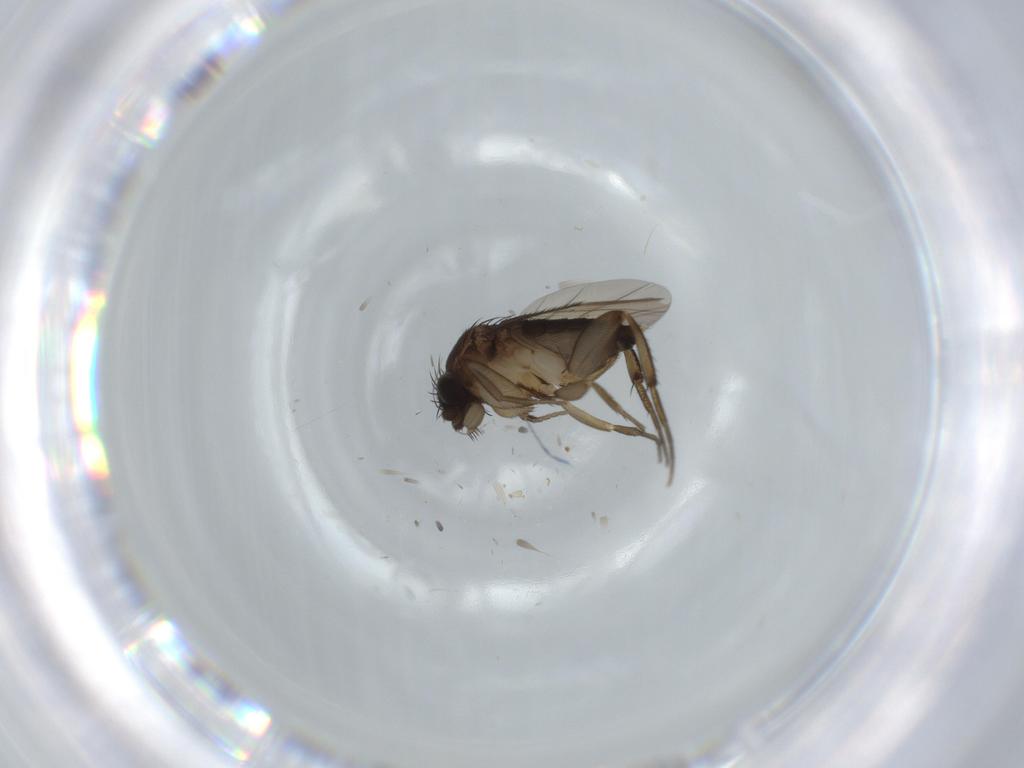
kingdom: Animalia
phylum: Arthropoda
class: Insecta
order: Diptera
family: Phoridae
